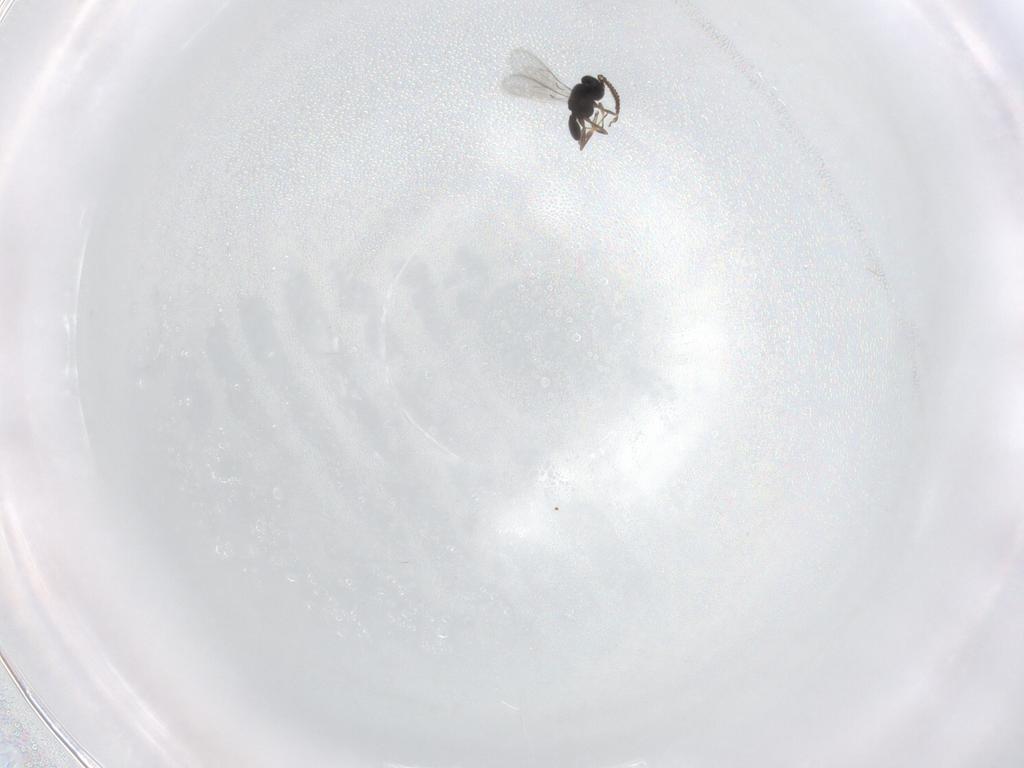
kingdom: Animalia
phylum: Arthropoda
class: Insecta
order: Hymenoptera
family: Scelionidae
